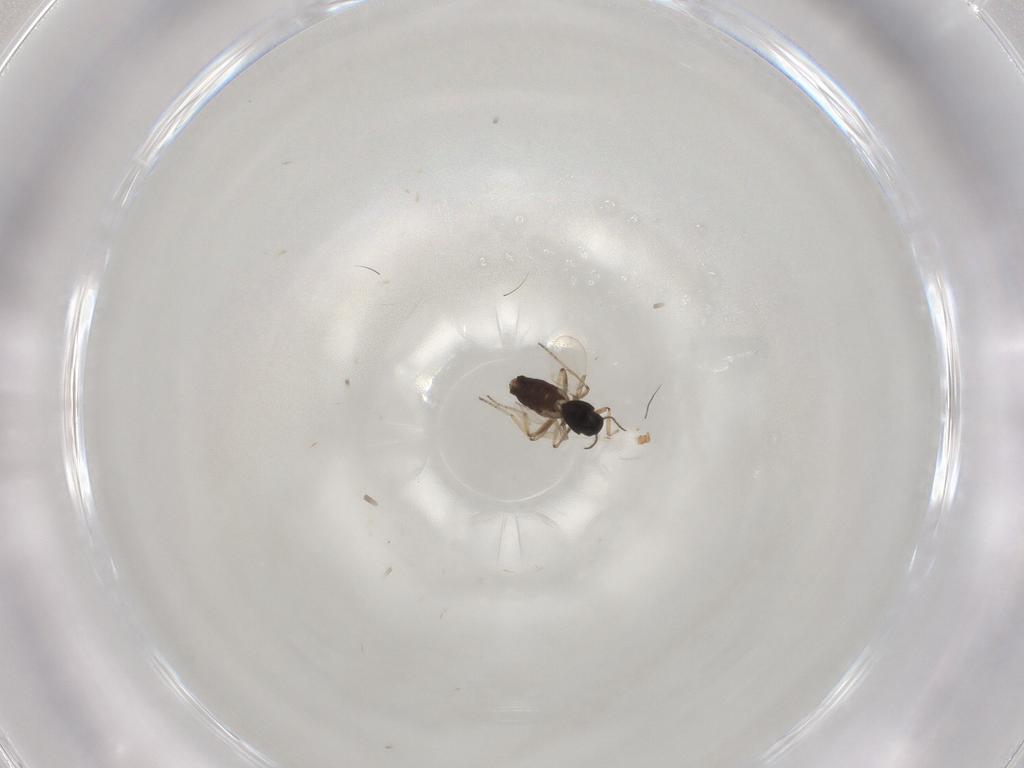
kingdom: Animalia
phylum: Arthropoda
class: Insecta
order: Diptera
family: Ceratopogonidae
